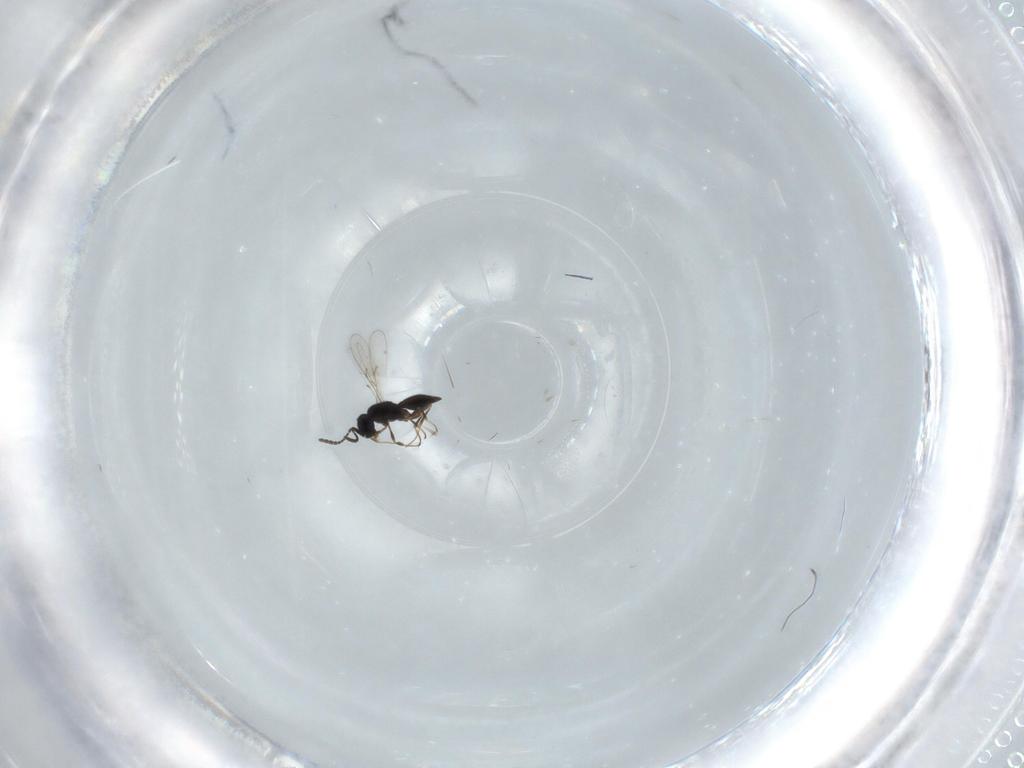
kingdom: Animalia
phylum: Arthropoda
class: Insecta
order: Hymenoptera
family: Scelionidae
